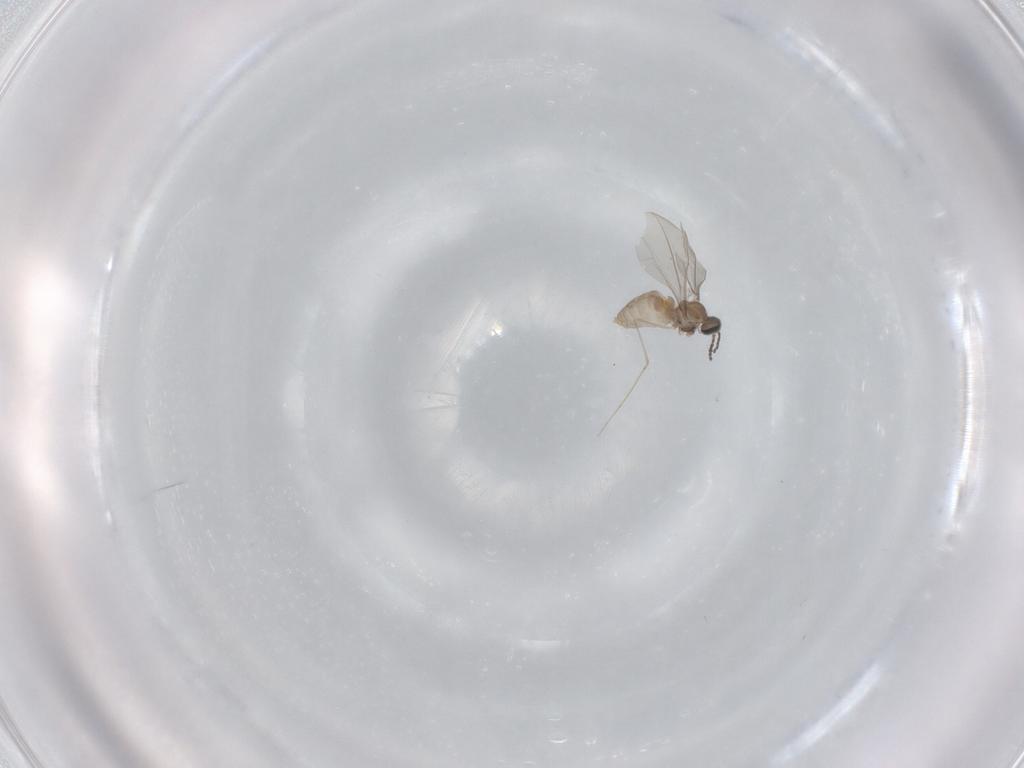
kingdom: Animalia
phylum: Arthropoda
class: Insecta
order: Diptera
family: Cecidomyiidae
